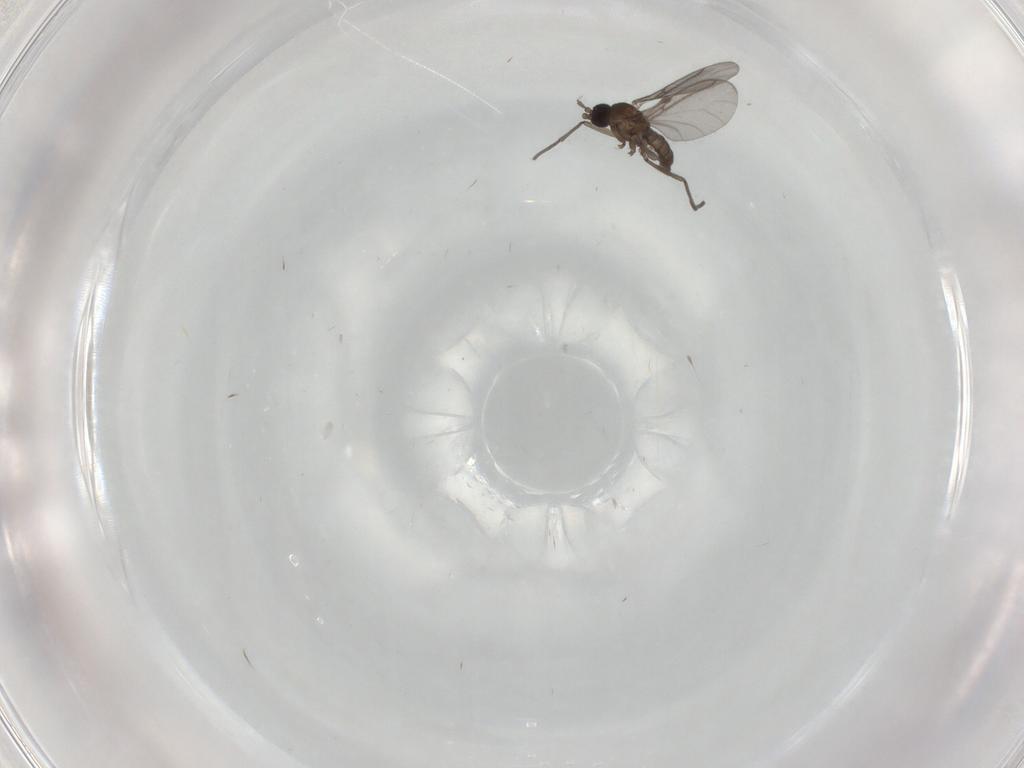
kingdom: Animalia
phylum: Arthropoda
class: Insecta
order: Diptera
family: Sciaridae
